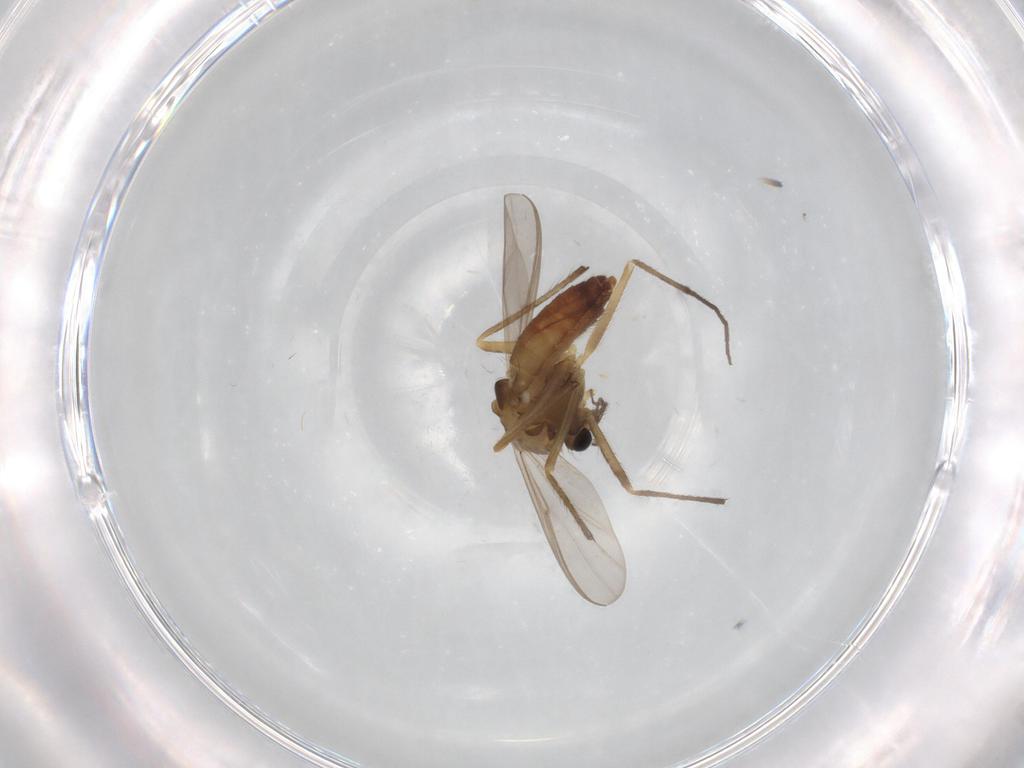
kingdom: Animalia
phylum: Arthropoda
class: Insecta
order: Diptera
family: Chironomidae
